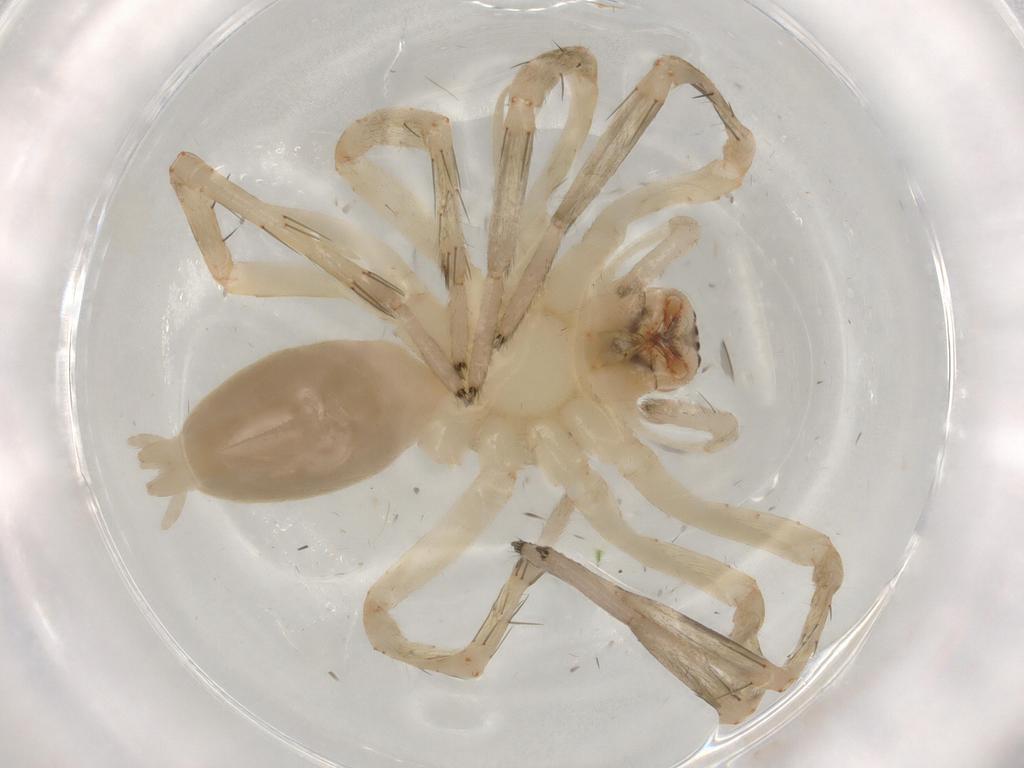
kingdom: Animalia
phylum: Arthropoda
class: Arachnida
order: Araneae
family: Anyphaenidae
